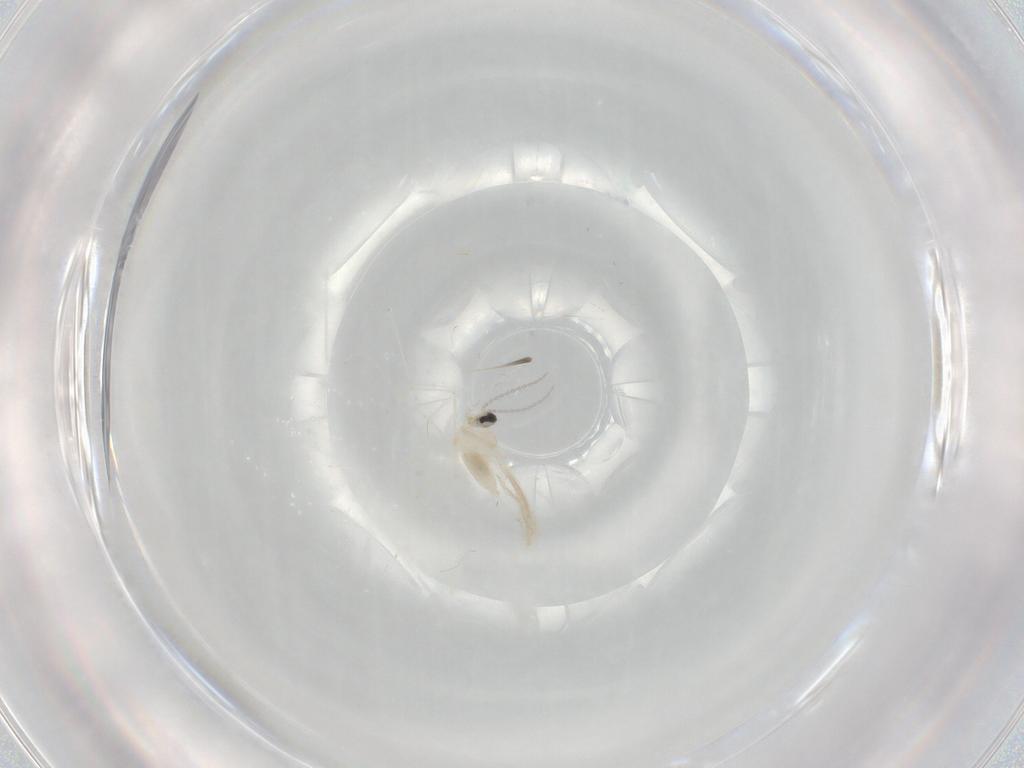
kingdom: Animalia
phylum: Arthropoda
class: Insecta
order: Diptera
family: Cecidomyiidae
